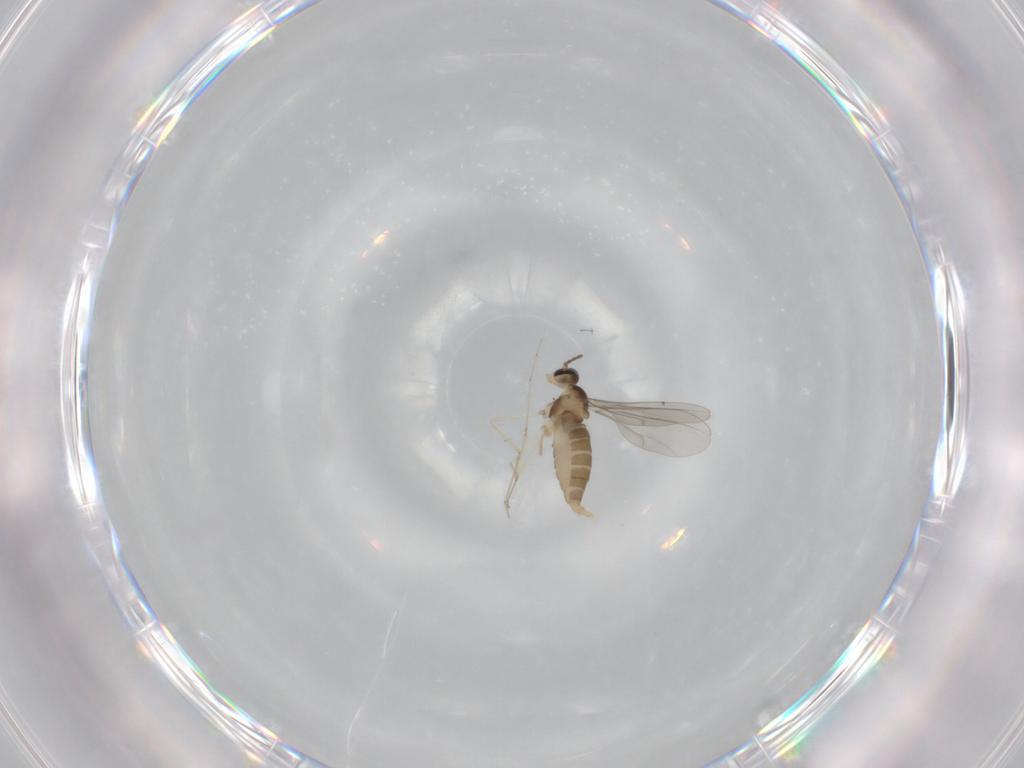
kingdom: Animalia
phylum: Arthropoda
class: Insecta
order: Diptera
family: Cecidomyiidae
